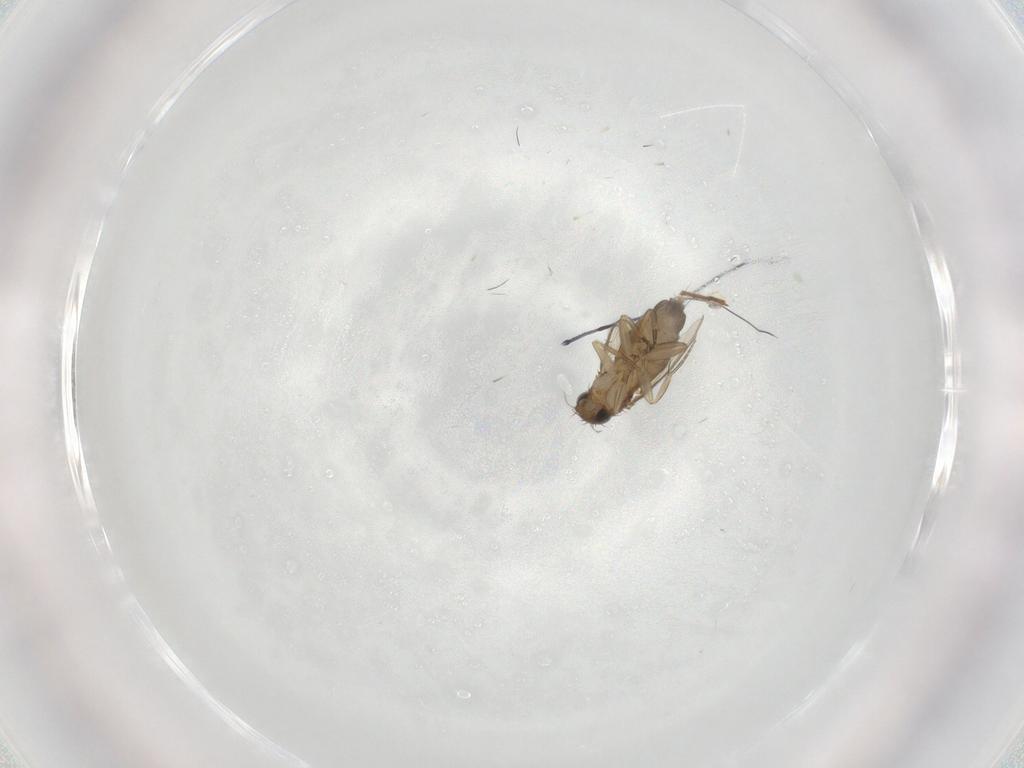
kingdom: Animalia
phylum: Arthropoda
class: Insecta
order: Diptera
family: Phoridae
